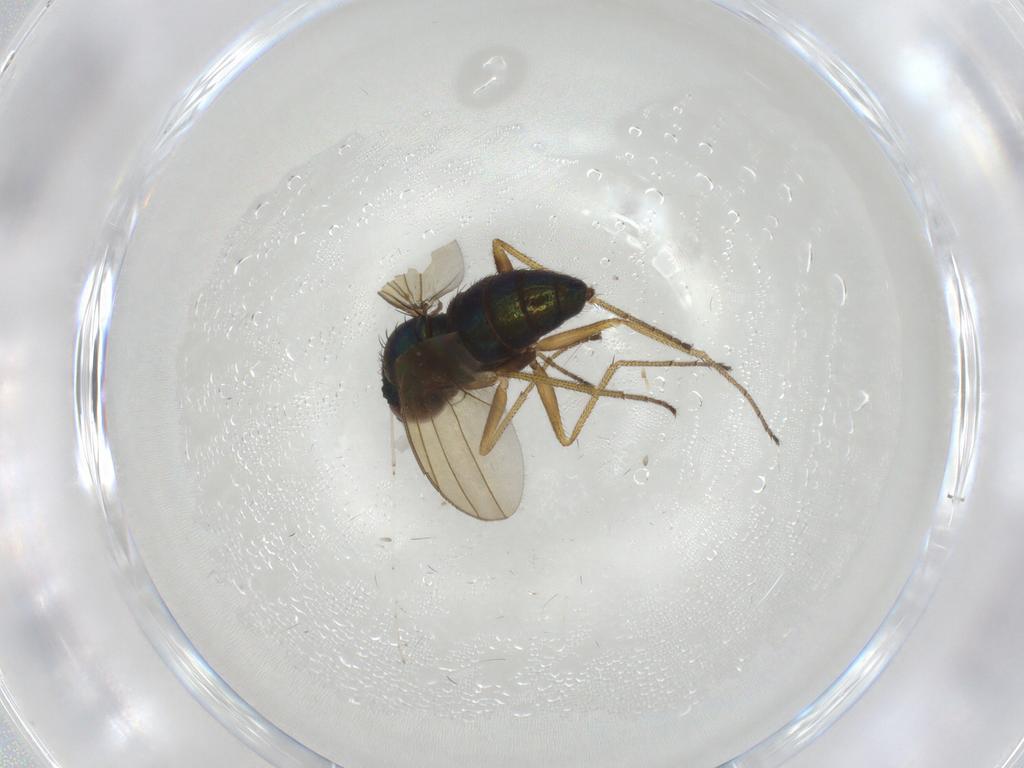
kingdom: Animalia
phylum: Arthropoda
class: Insecta
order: Diptera
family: Dolichopodidae
